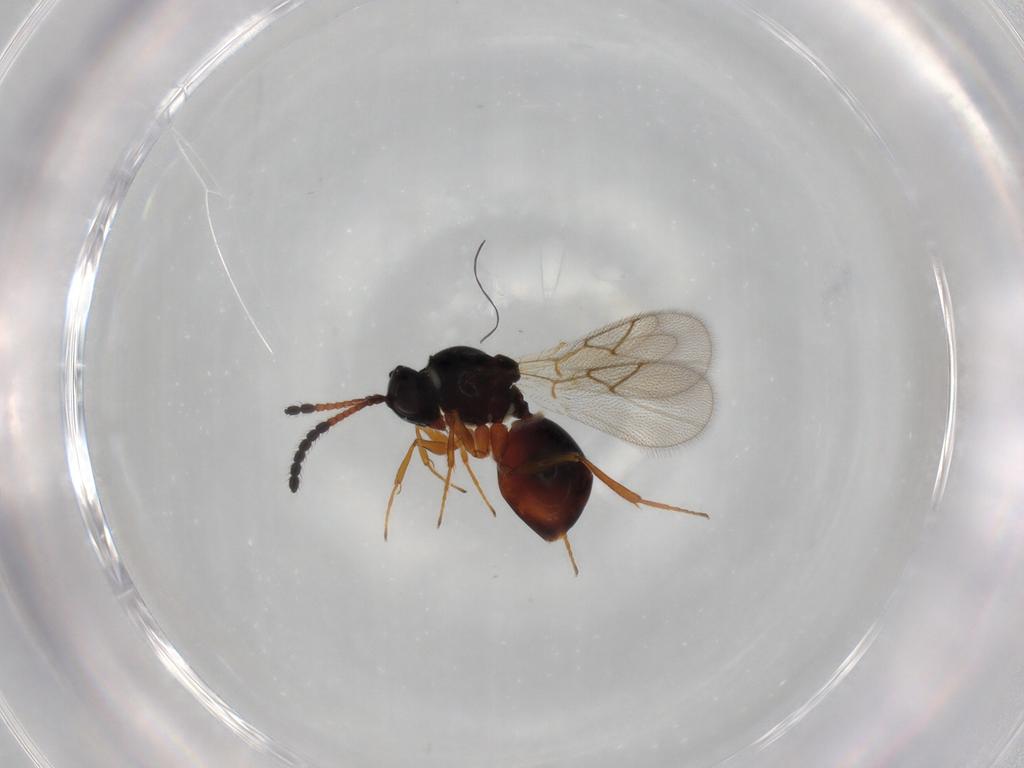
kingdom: Animalia
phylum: Arthropoda
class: Insecta
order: Hymenoptera
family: Figitidae
